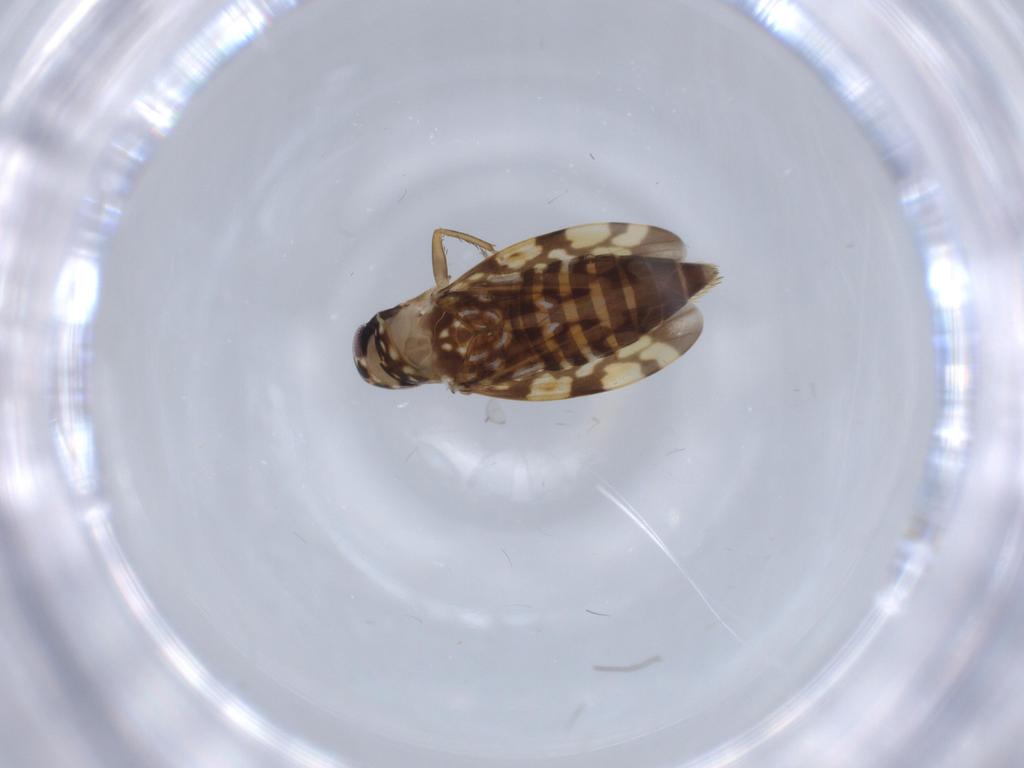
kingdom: Animalia
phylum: Arthropoda
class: Insecta
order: Hemiptera
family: Cicadellidae
